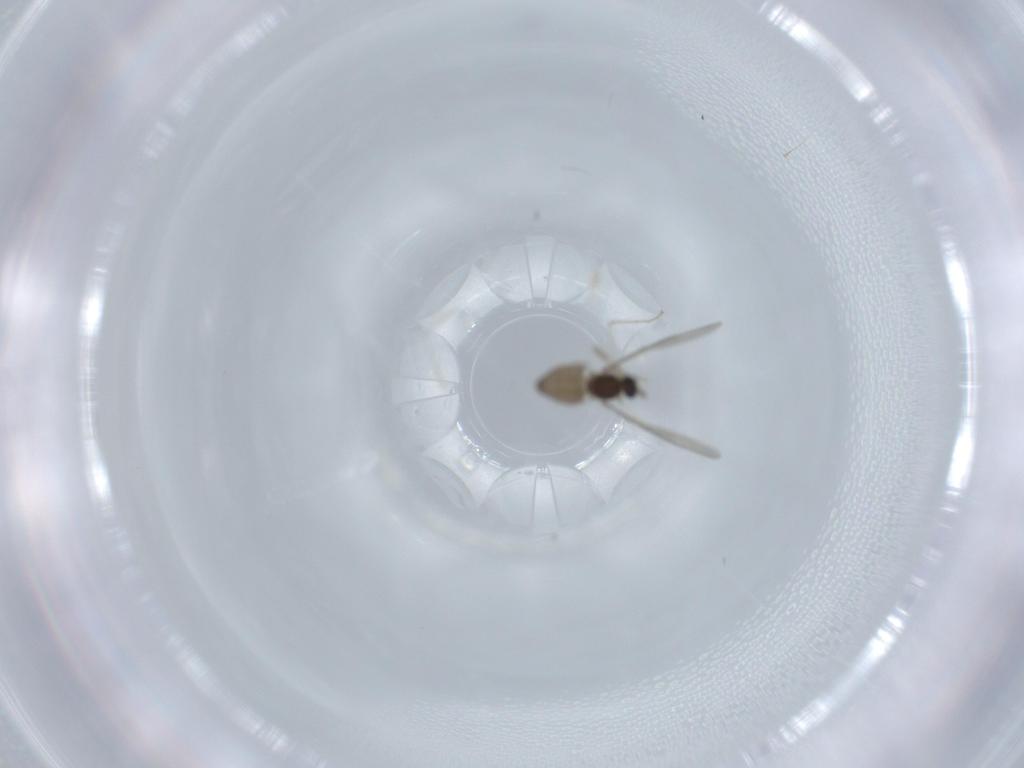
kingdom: Animalia
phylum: Arthropoda
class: Insecta
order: Diptera
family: Cecidomyiidae
